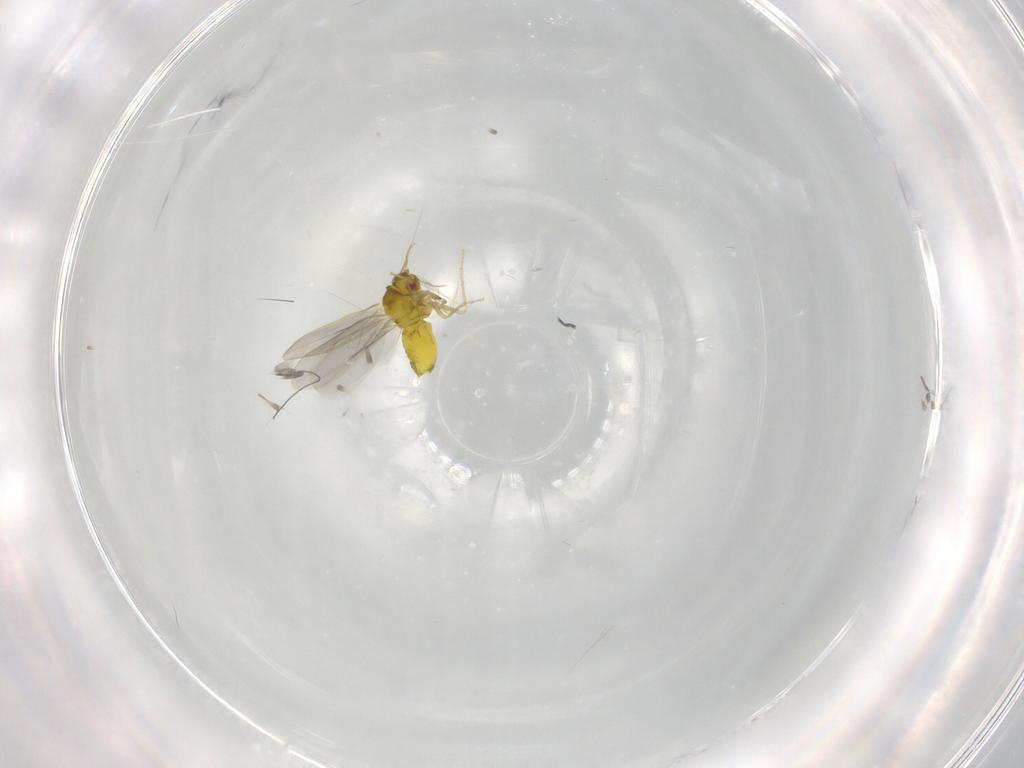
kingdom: Animalia
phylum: Arthropoda
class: Insecta
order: Hemiptera
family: Aleyrodidae
